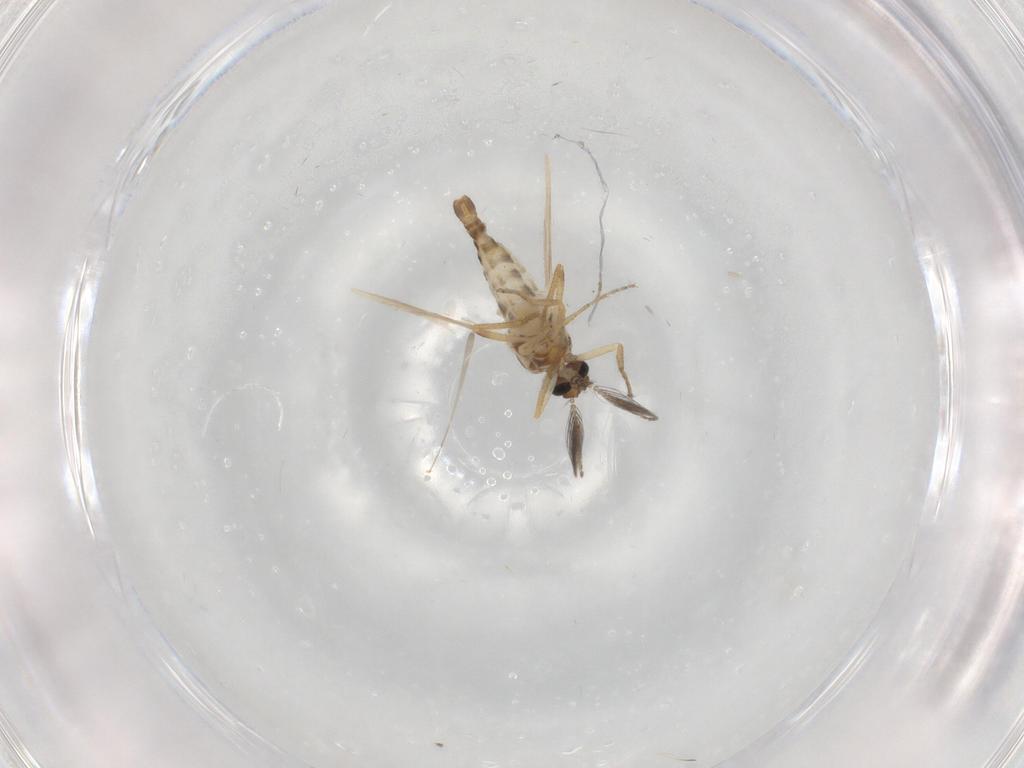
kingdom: Animalia
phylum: Arthropoda
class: Insecta
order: Diptera
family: Ceratopogonidae
